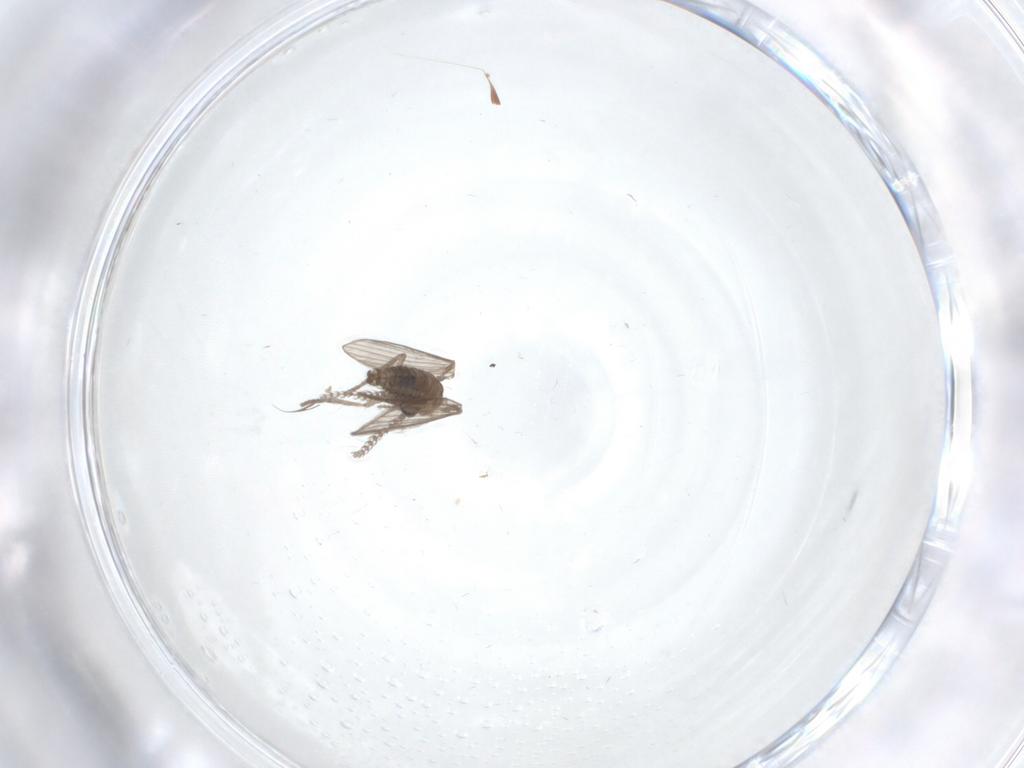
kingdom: Animalia
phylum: Arthropoda
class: Insecta
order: Diptera
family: Psychodidae
